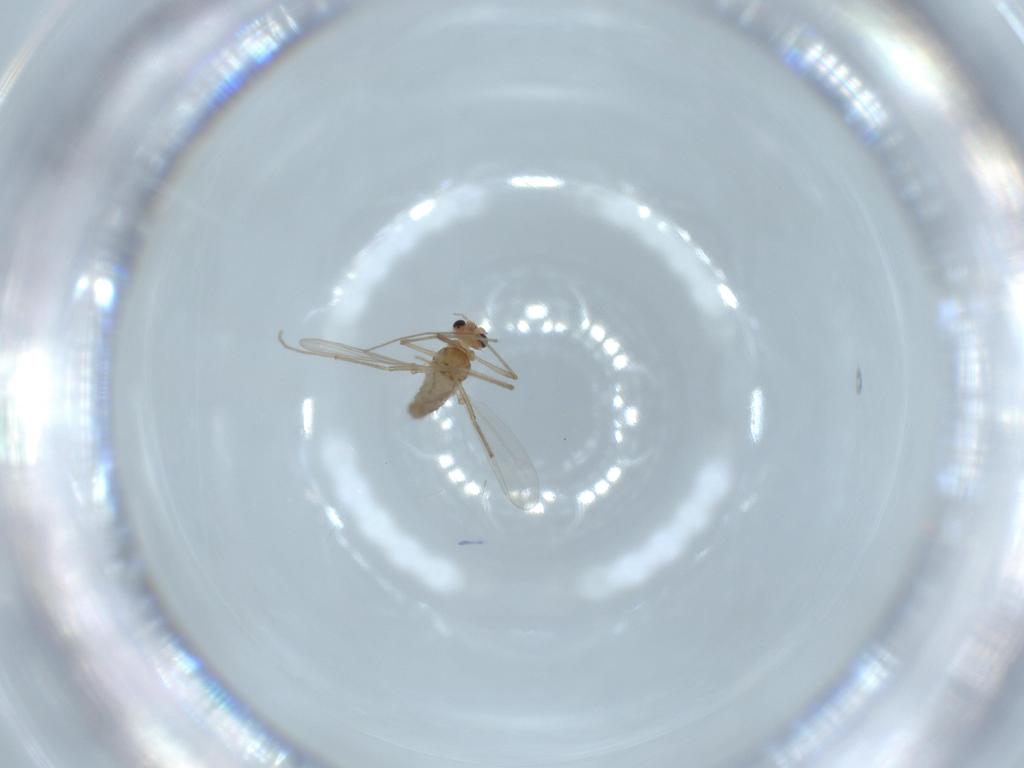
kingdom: Animalia
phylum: Arthropoda
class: Insecta
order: Diptera
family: Chironomidae
